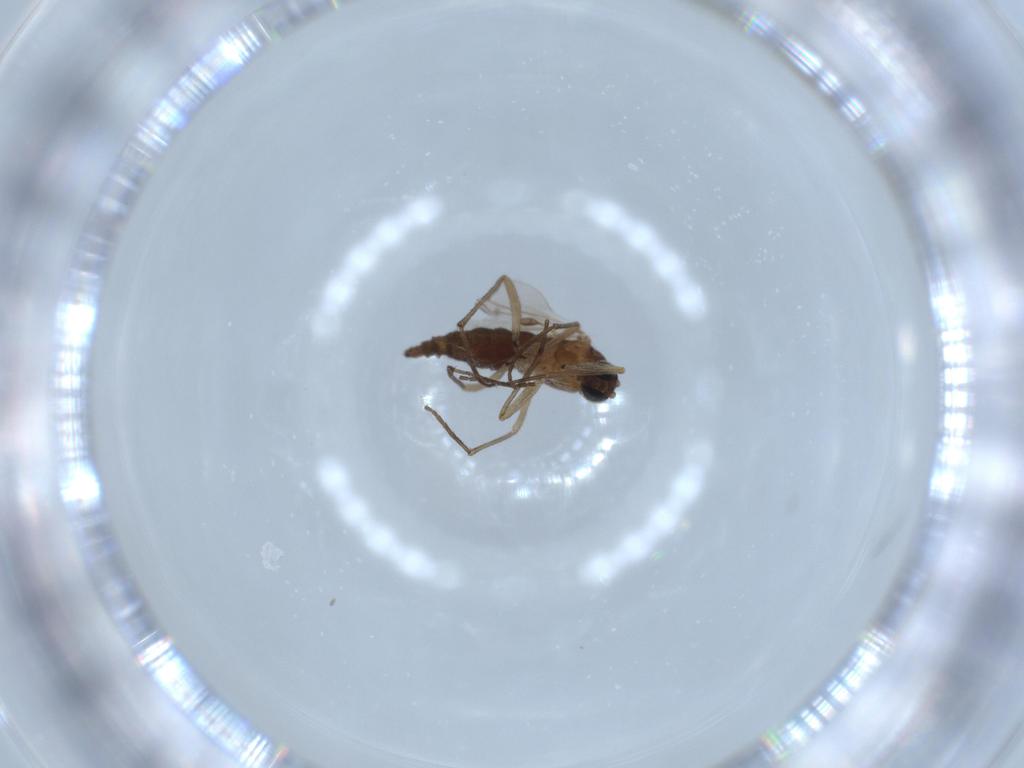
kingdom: Animalia
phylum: Arthropoda
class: Insecta
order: Diptera
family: Sciaridae
